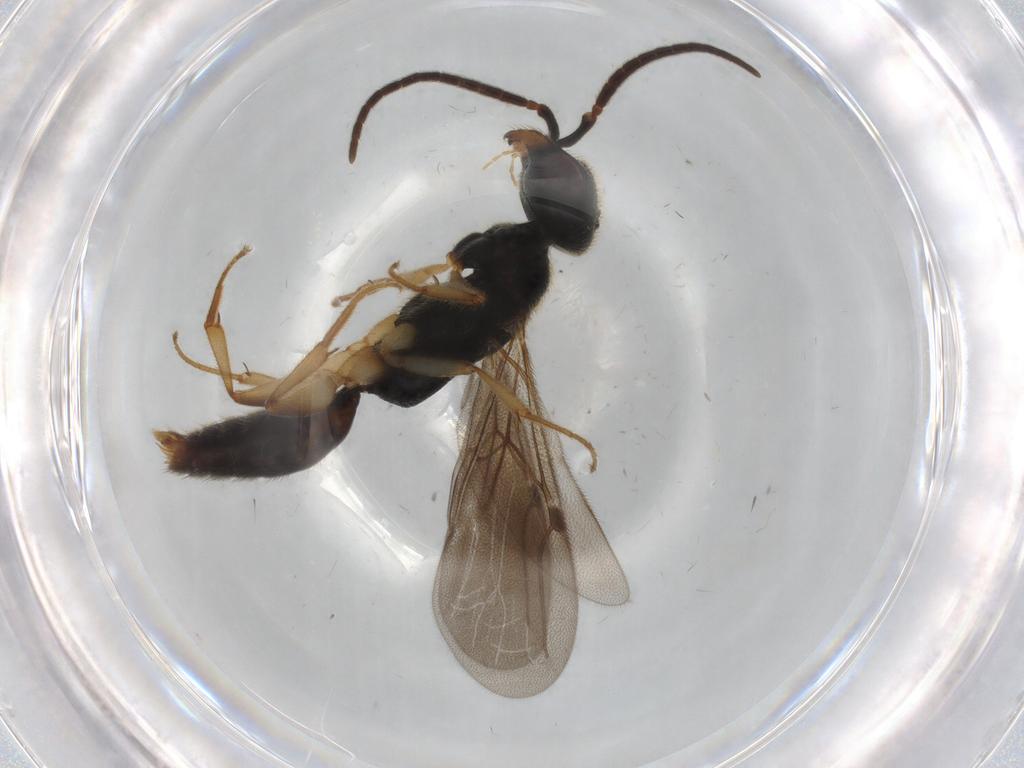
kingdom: Animalia
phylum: Arthropoda
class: Insecta
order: Hymenoptera
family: Bethylidae
